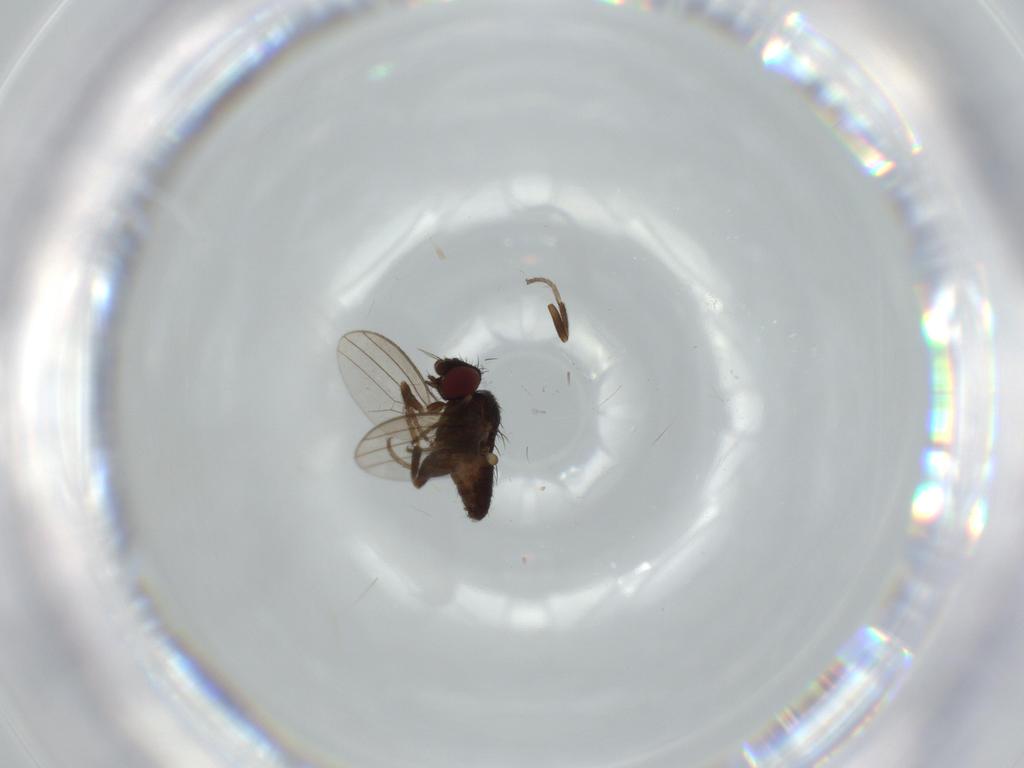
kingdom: Animalia
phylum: Arthropoda
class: Insecta
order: Diptera
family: Milichiidae
